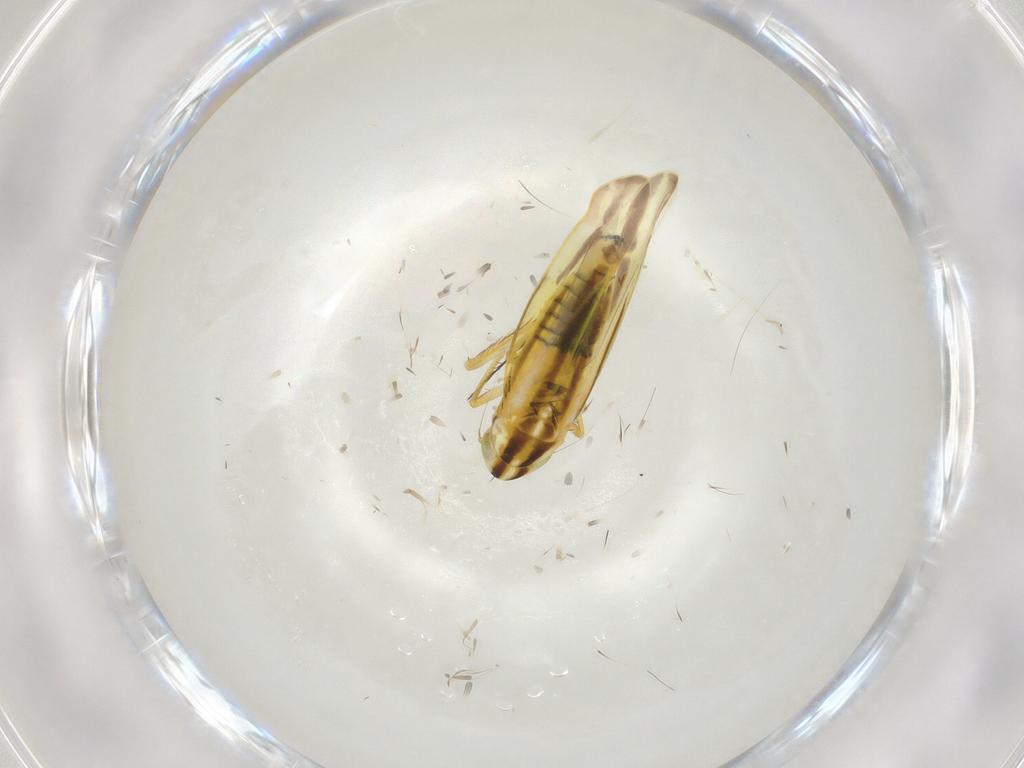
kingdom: Animalia
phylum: Arthropoda
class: Insecta
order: Hemiptera
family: Cicadellidae
